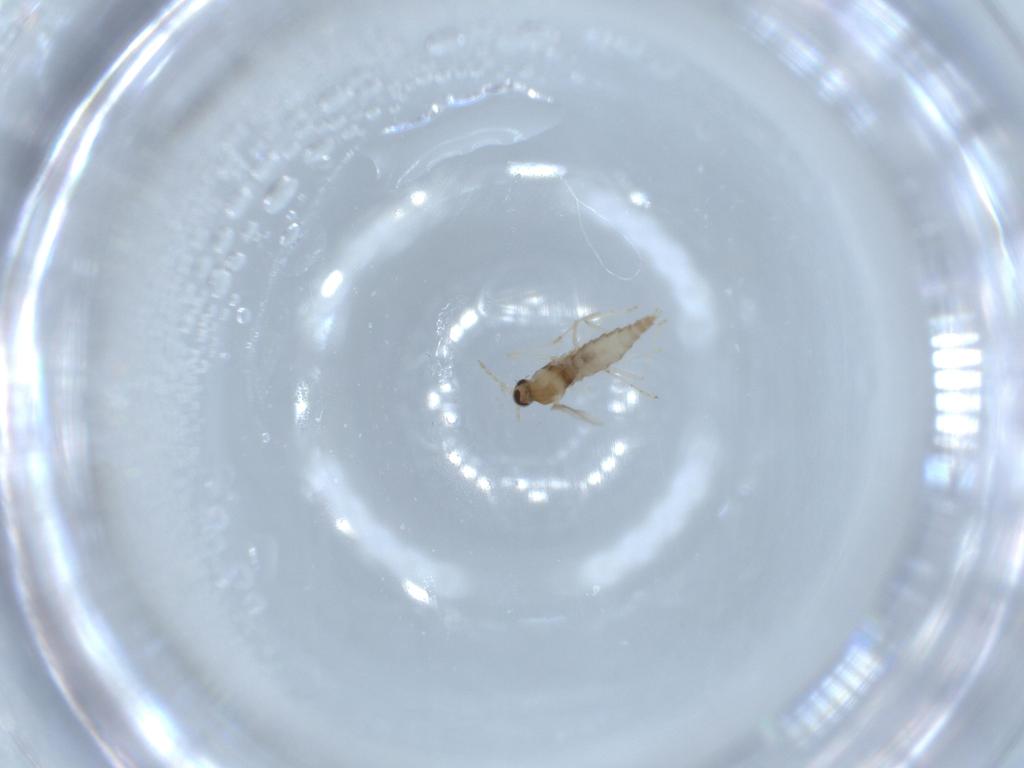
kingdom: Animalia
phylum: Arthropoda
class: Insecta
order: Diptera
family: Cecidomyiidae
